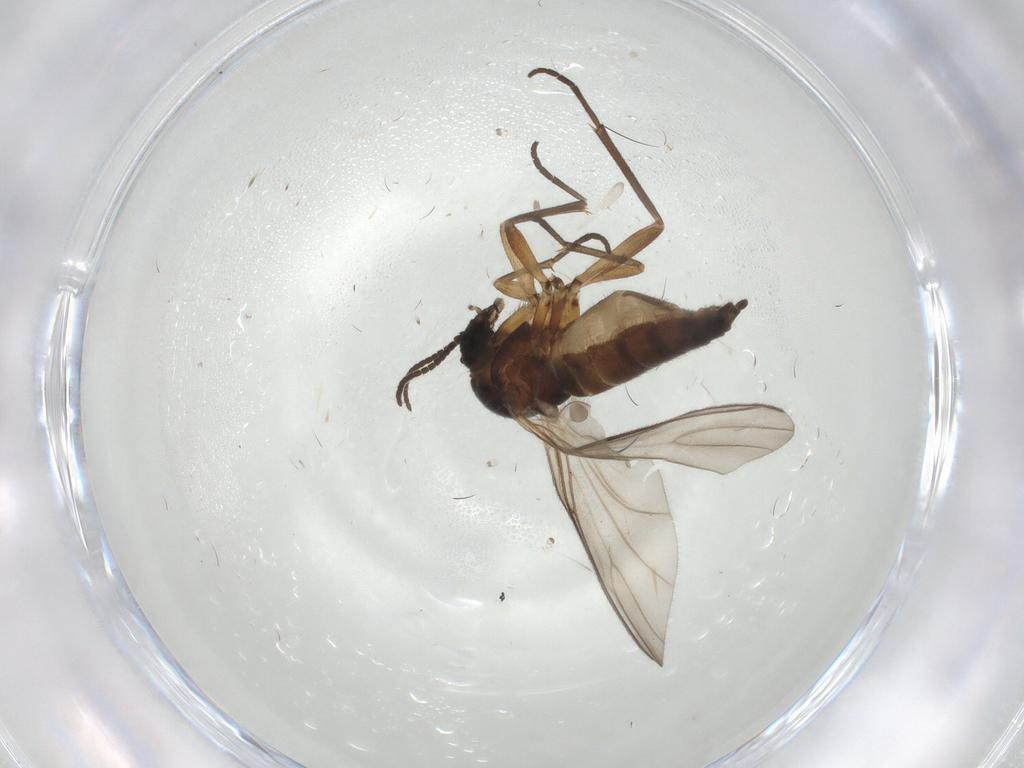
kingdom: Animalia
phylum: Arthropoda
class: Insecta
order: Diptera
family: Sciaridae
